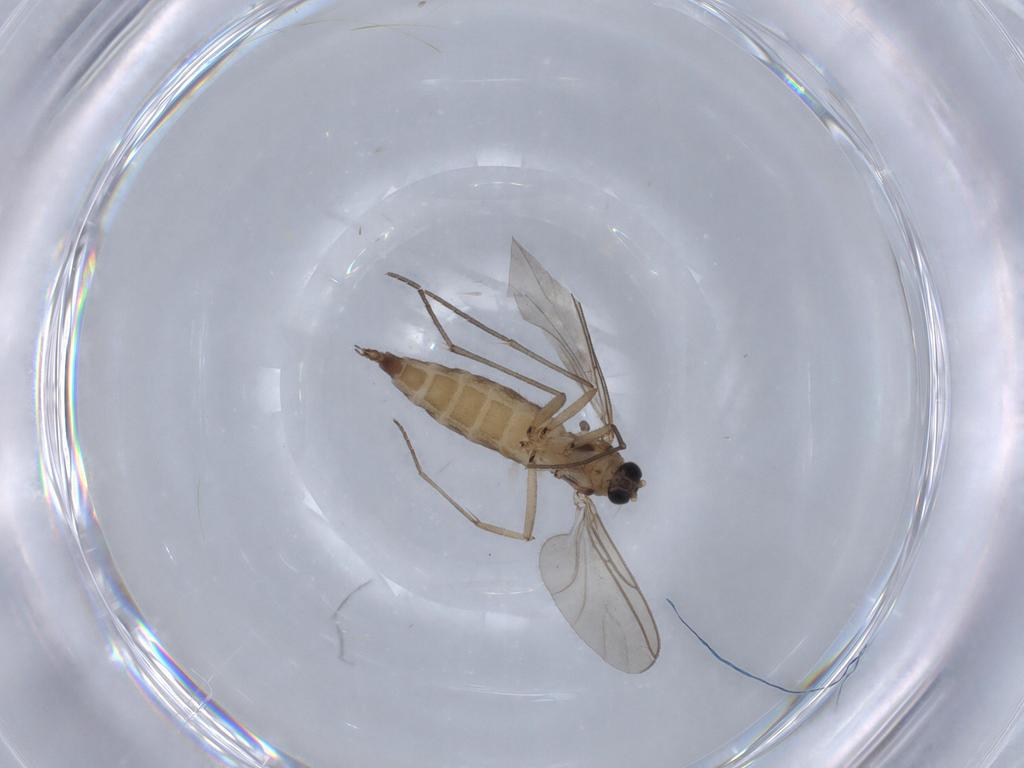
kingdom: Animalia
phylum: Arthropoda
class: Insecta
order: Diptera
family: Sciaridae
